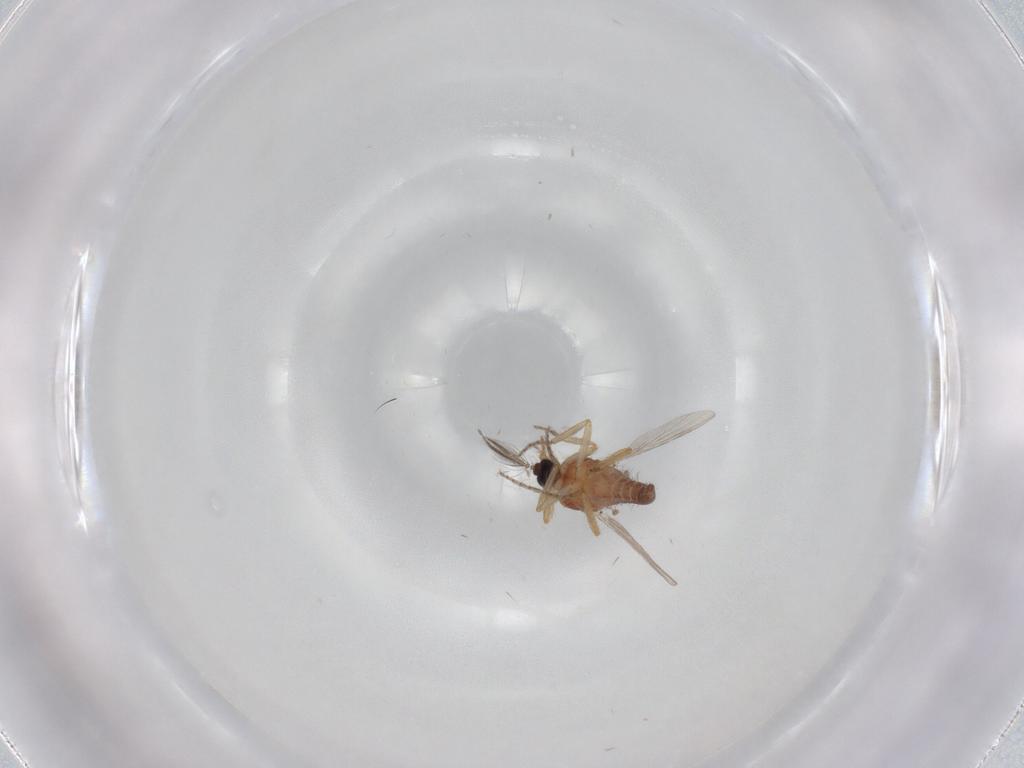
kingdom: Animalia
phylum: Arthropoda
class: Insecta
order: Diptera
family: Ceratopogonidae
